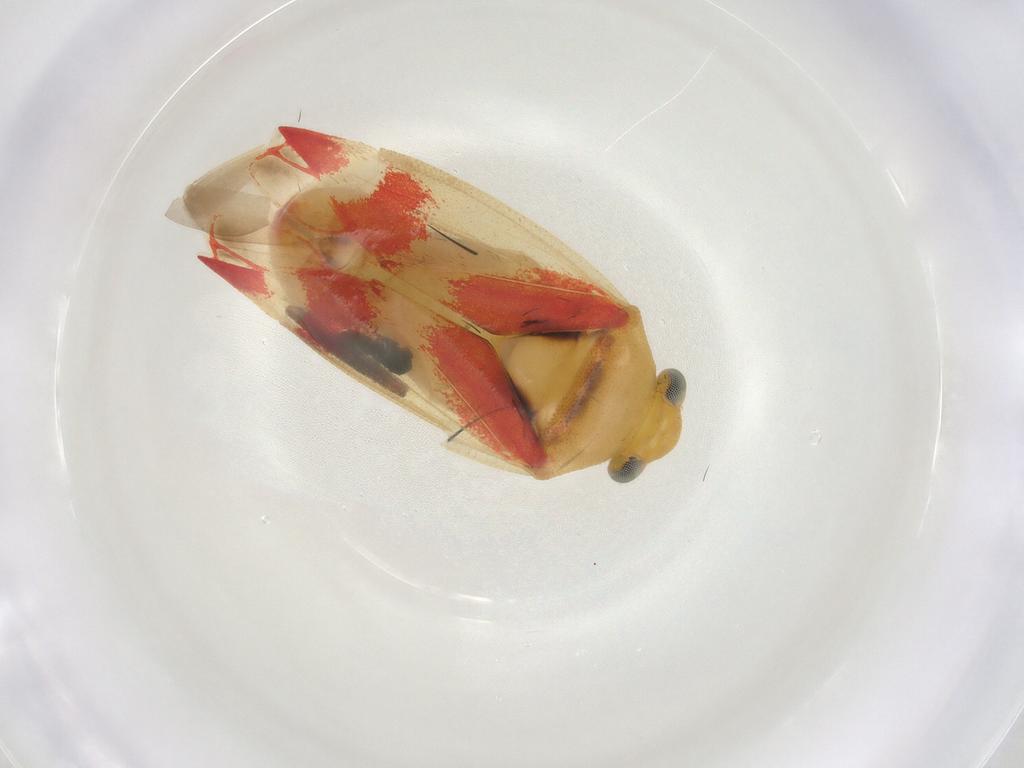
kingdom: Animalia
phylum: Arthropoda
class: Insecta
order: Hemiptera
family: Miridae
